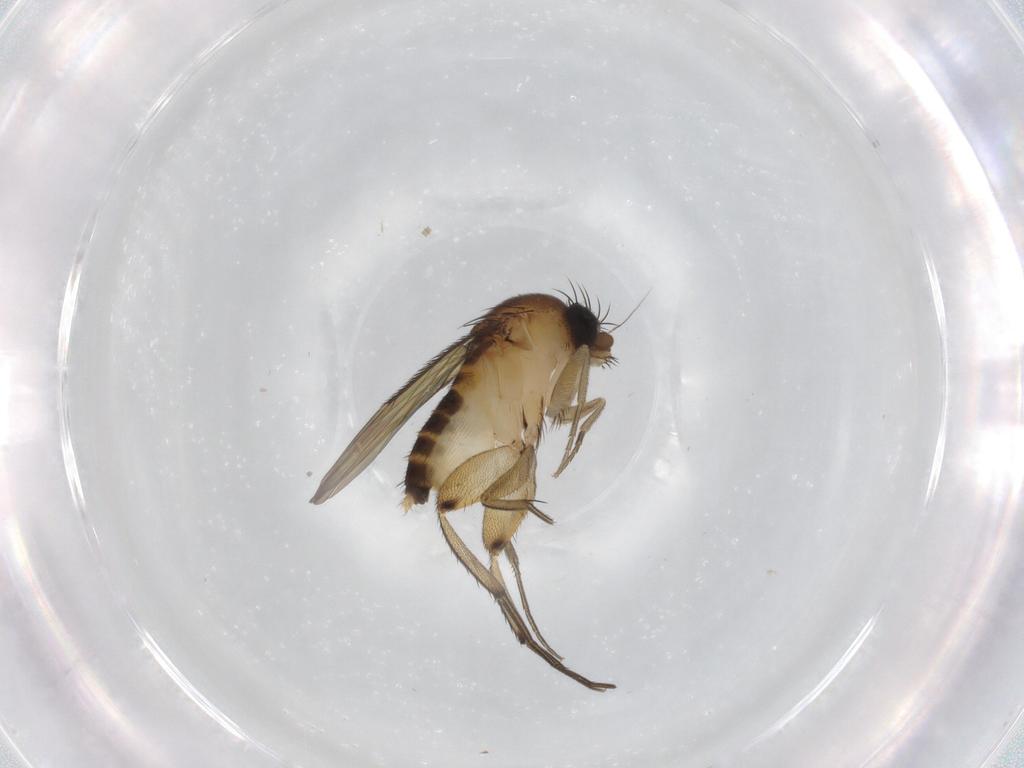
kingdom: Animalia
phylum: Arthropoda
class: Insecta
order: Diptera
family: Phoridae
